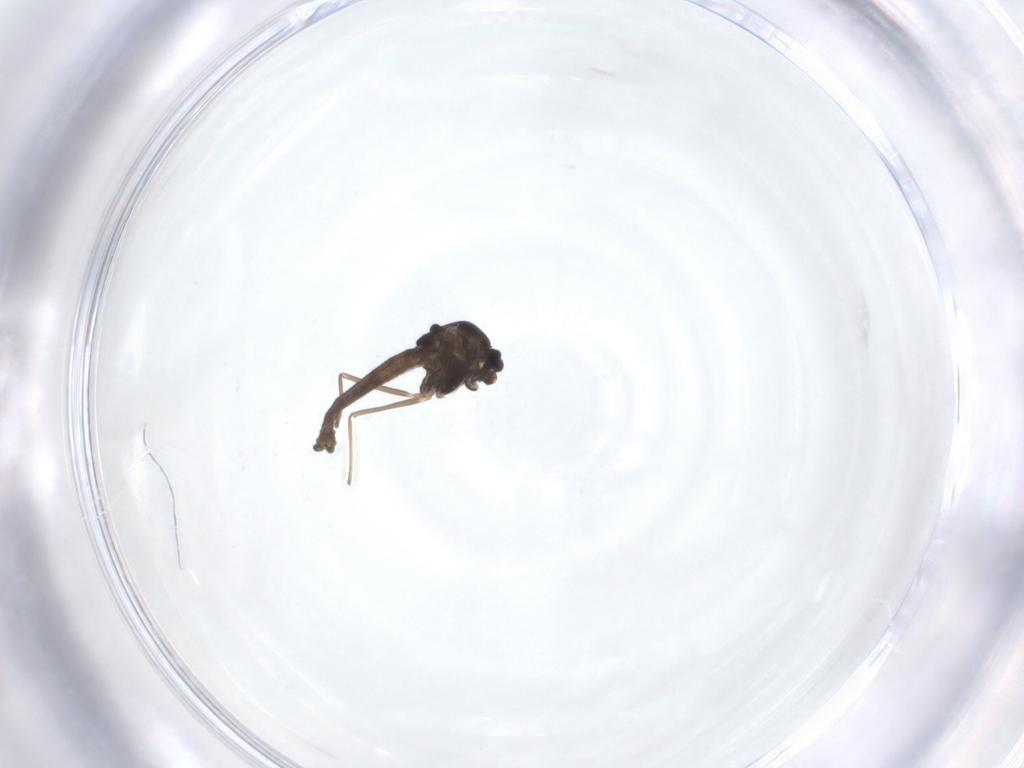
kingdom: Animalia
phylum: Arthropoda
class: Insecta
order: Diptera
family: Chironomidae
